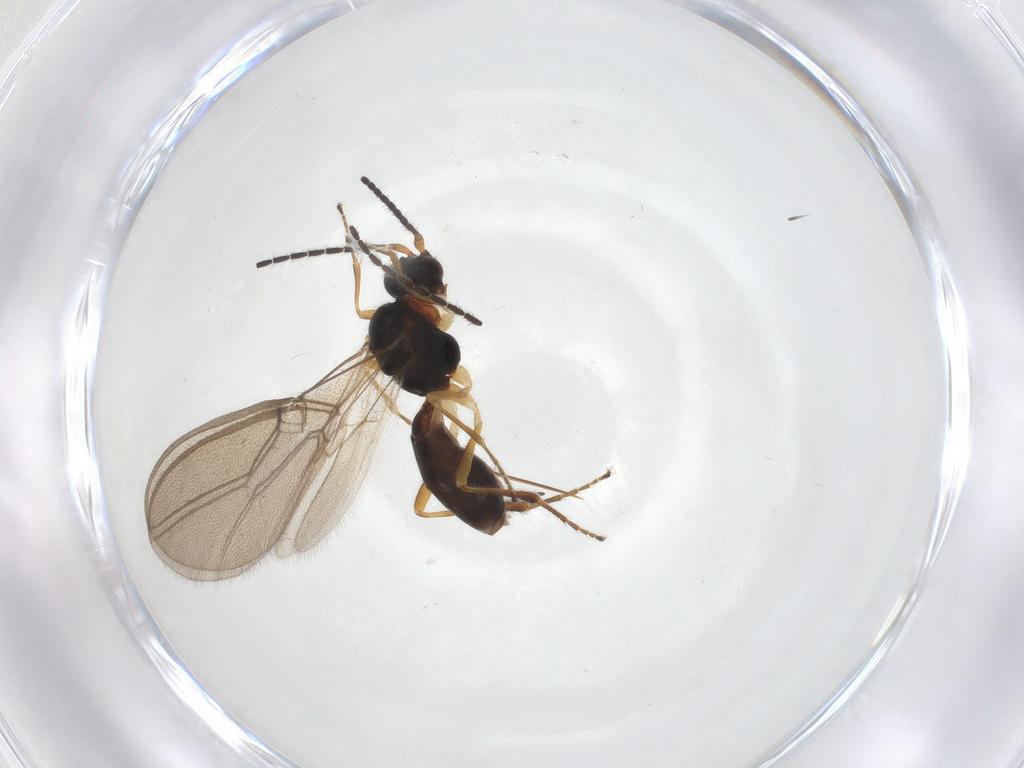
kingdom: Animalia
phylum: Arthropoda
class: Insecta
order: Hymenoptera
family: Braconidae
